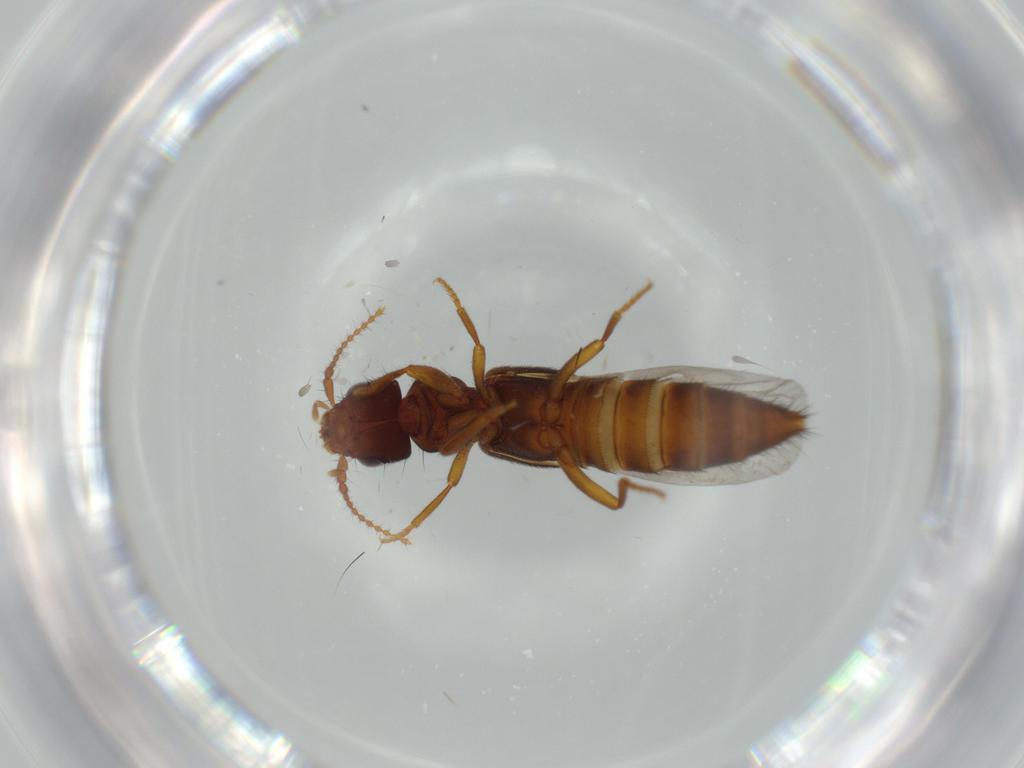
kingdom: Animalia
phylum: Arthropoda
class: Insecta
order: Coleoptera
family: Staphylinidae
